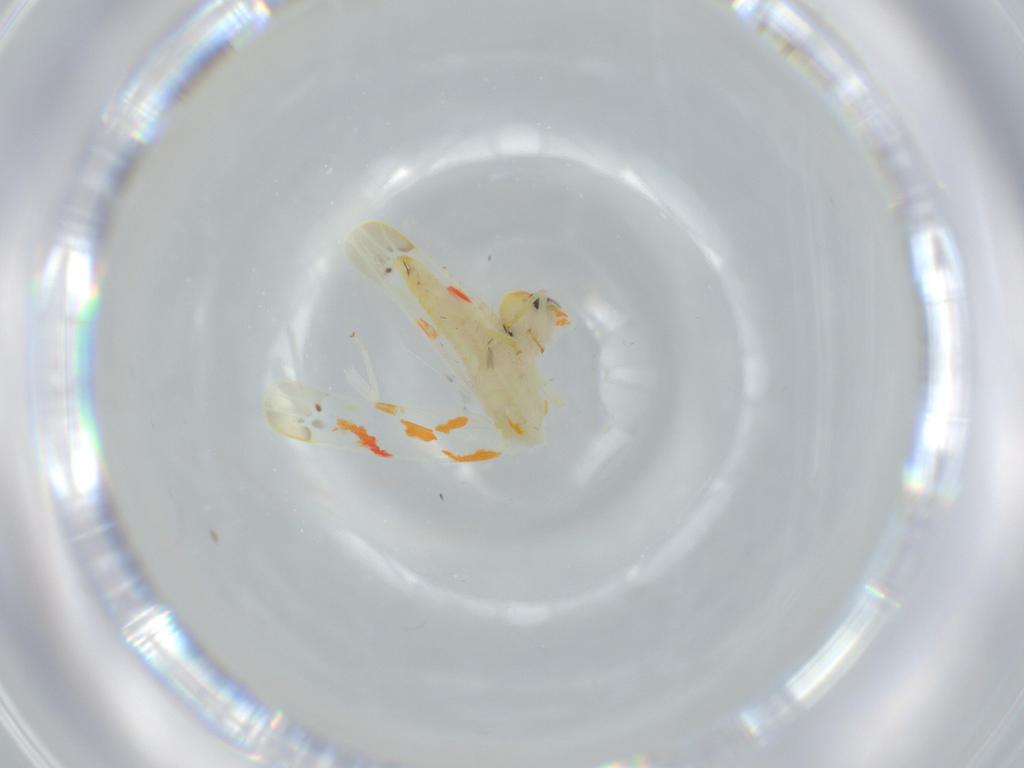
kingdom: Animalia
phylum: Arthropoda
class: Insecta
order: Hemiptera
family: Cicadellidae
